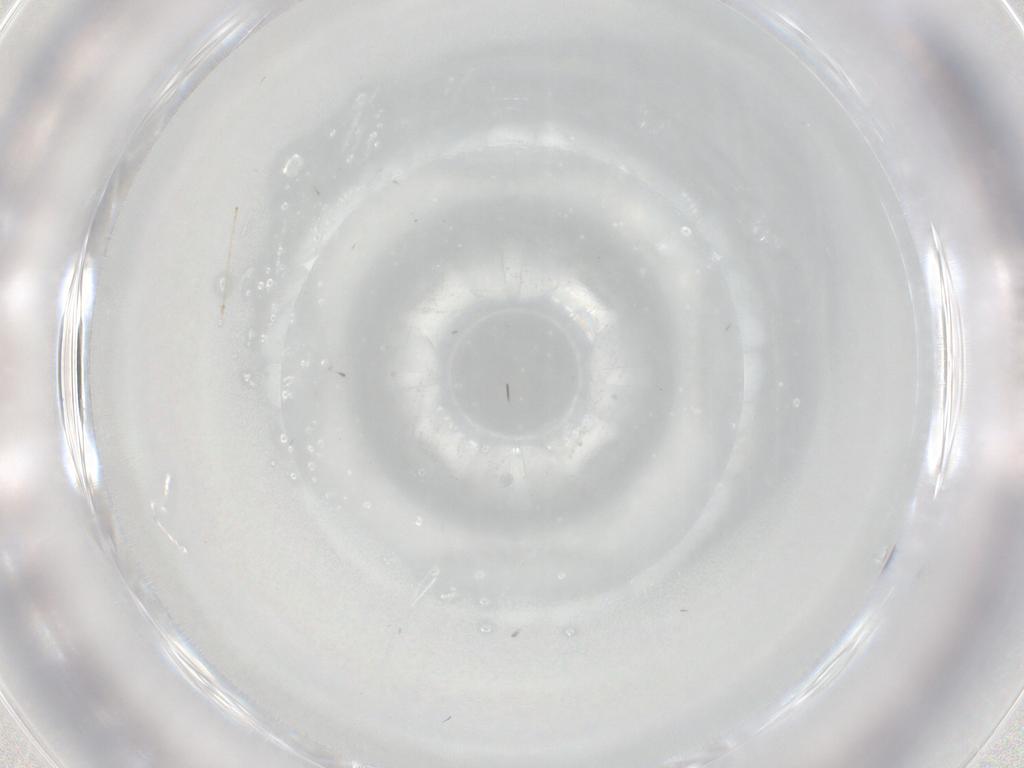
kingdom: Animalia
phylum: Arthropoda
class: Insecta
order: Diptera
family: Cecidomyiidae
